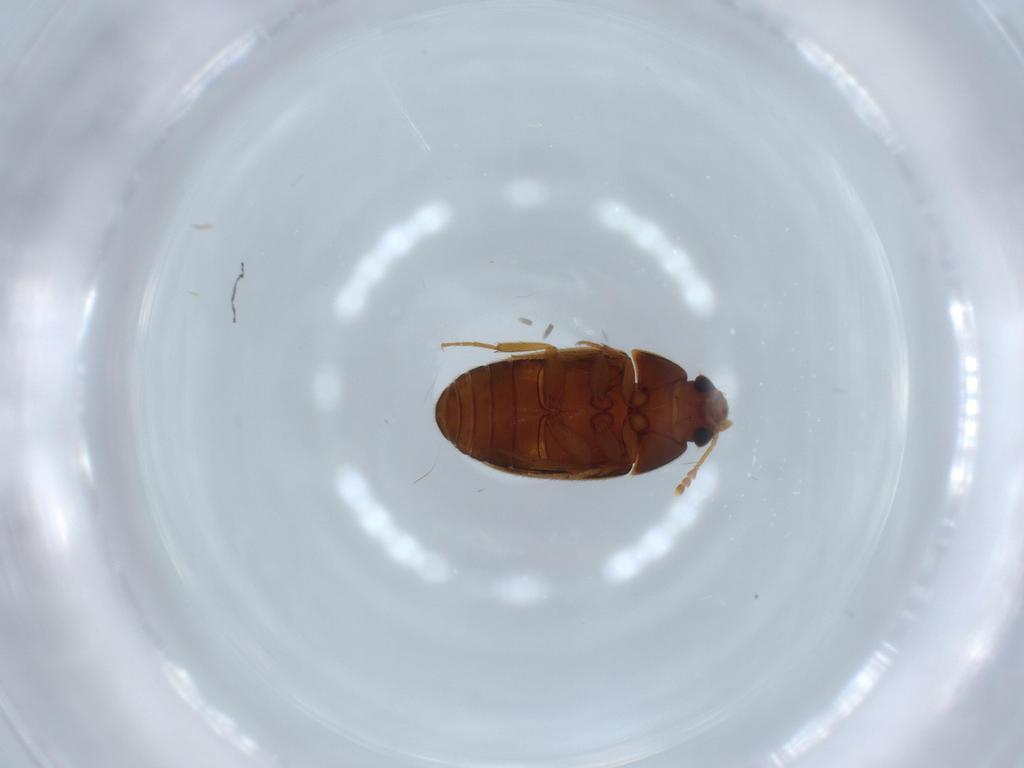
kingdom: Animalia
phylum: Arthropoda
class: Insecta
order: Coleoptera
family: Mycetophagidae
